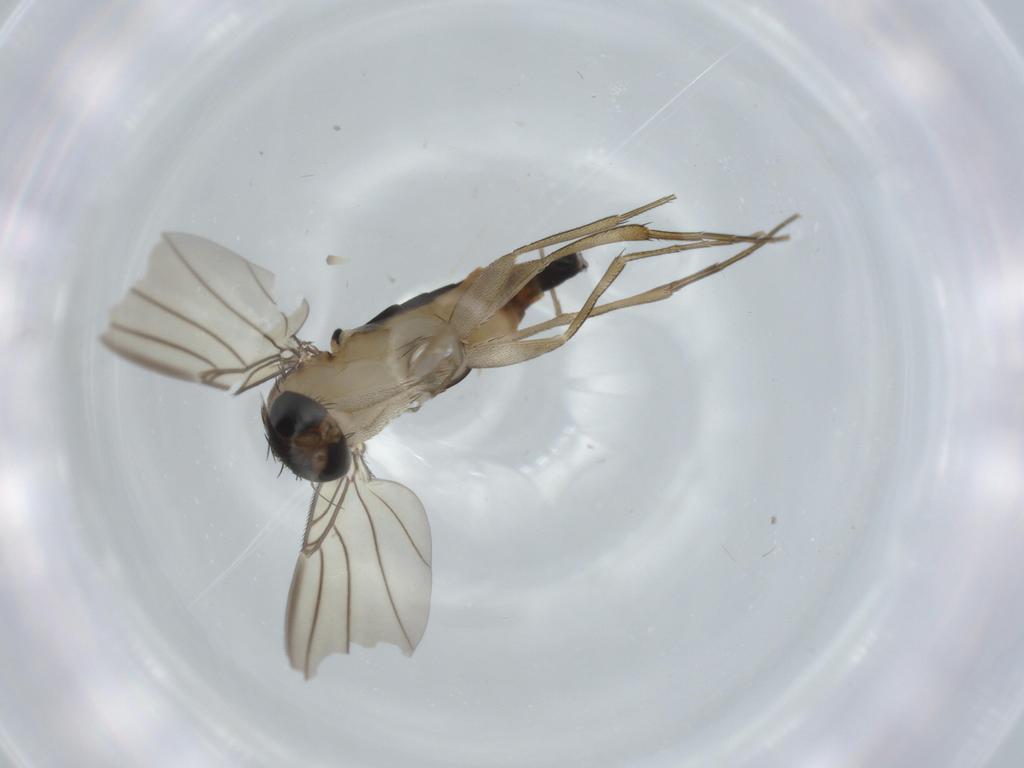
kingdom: Animalia
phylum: Arthropoda
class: Insecta
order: Diptera
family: Phoridae
